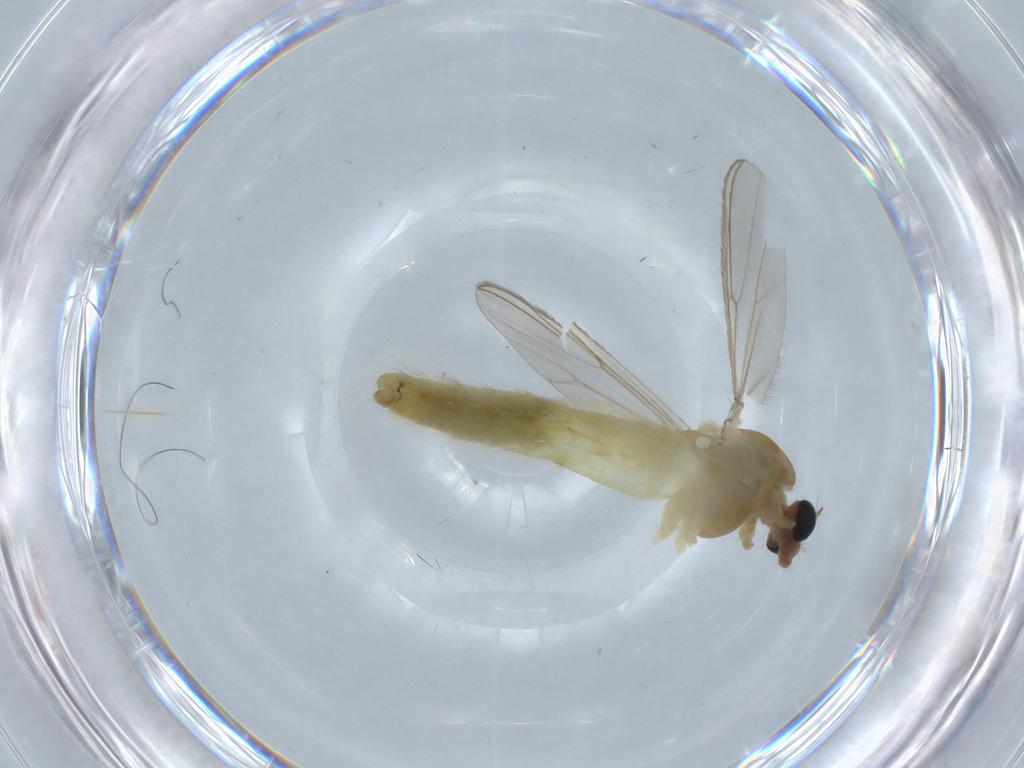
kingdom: Animalia
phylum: Arthropoda
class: Insecta
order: Diptera
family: Chironomidae
